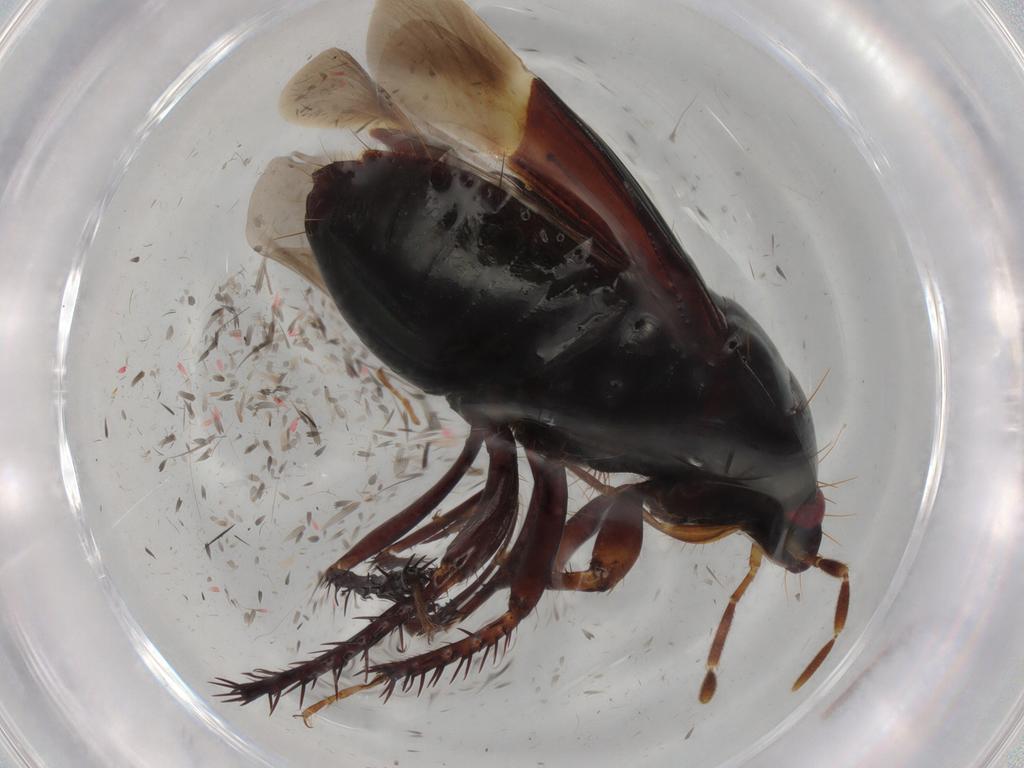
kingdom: Animalia
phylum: Arthropoda
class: Insecta
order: Hemiptera
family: Cydnidae
